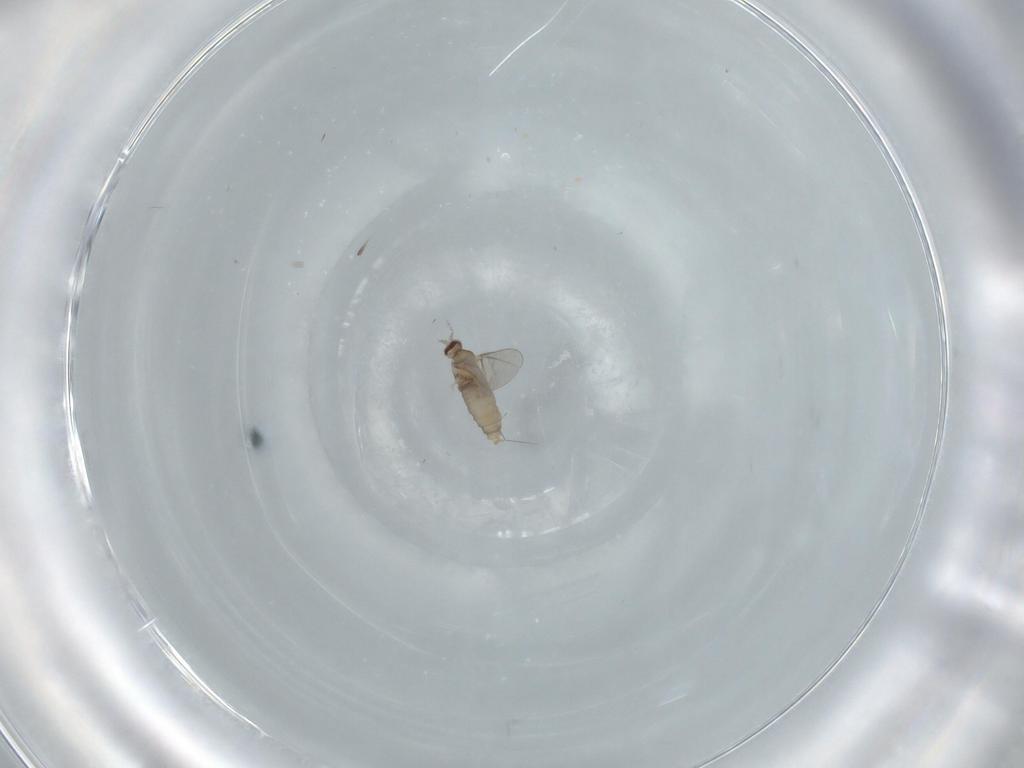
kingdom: Animalia
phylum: Arthropoda
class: Insecta
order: Diptera
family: Cecidomyiidae
